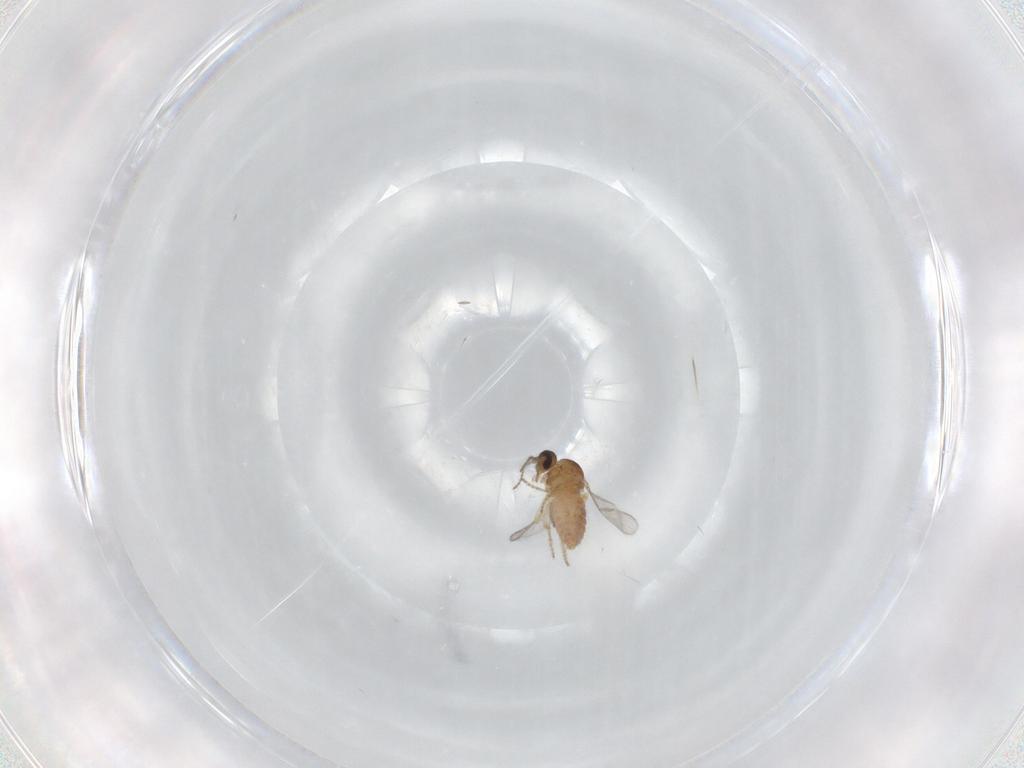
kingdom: Animalia
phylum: Arthropoda
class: Insecta
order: Diptera
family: Ceratopogonidae
